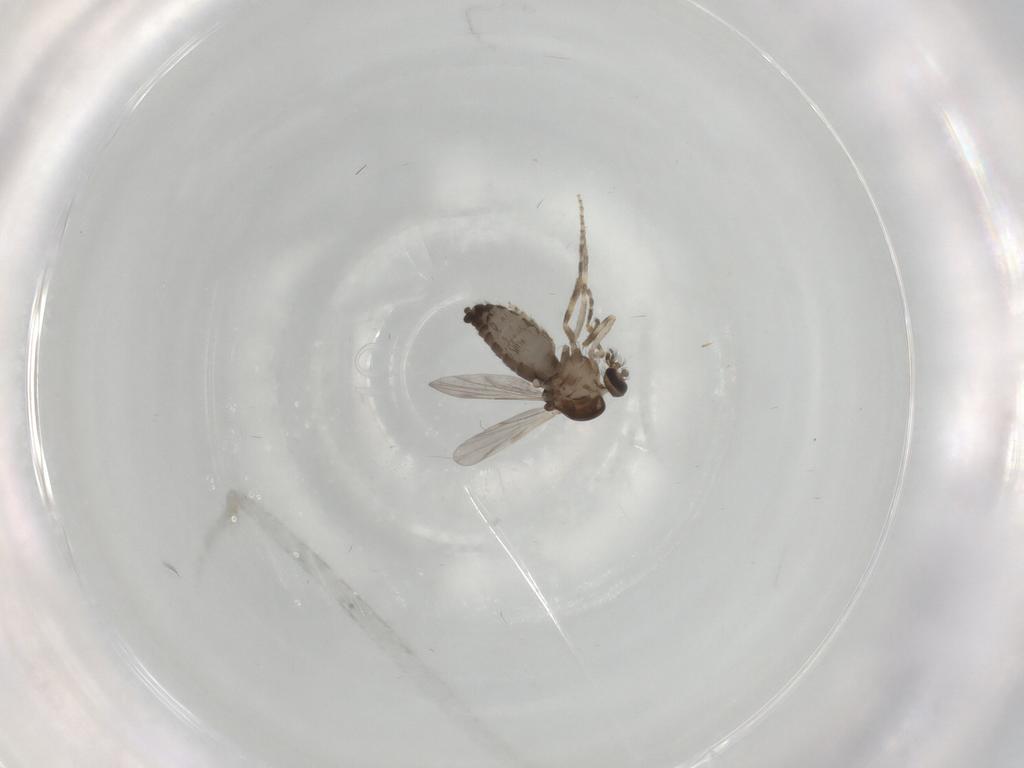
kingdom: Animalia
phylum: Arthropoda
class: Insecta
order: Diptera
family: Ceratopogonidae
